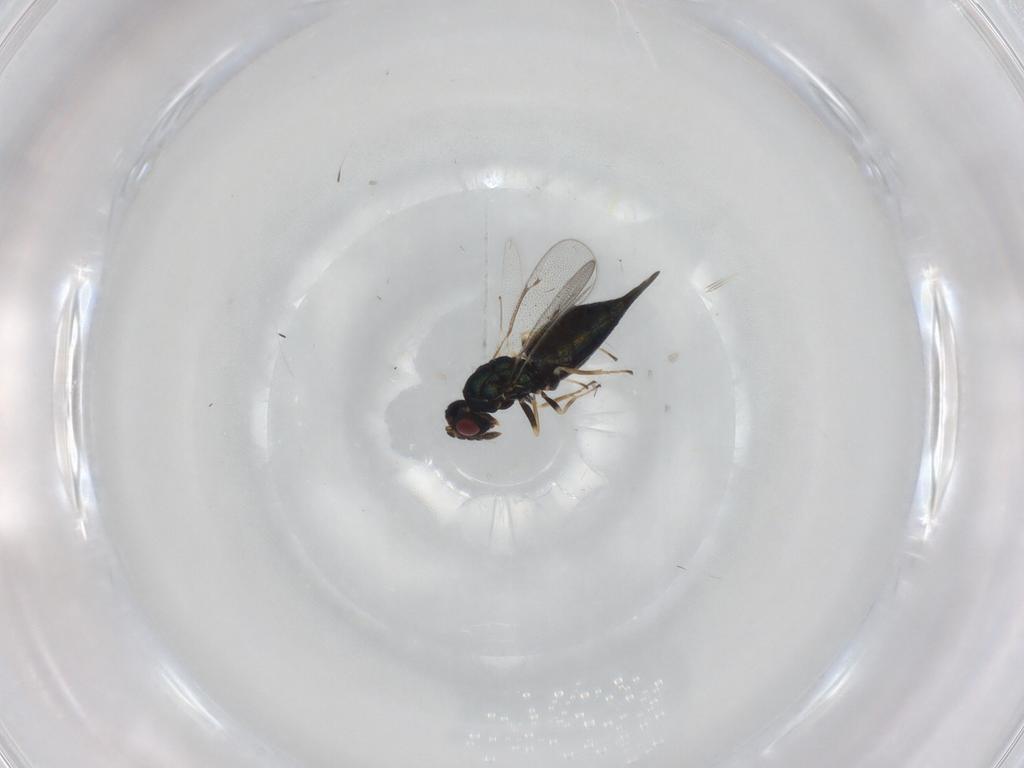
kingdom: Animalia
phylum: Arthropoda
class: Insecta
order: Hymenoptera
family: Eulophidae
